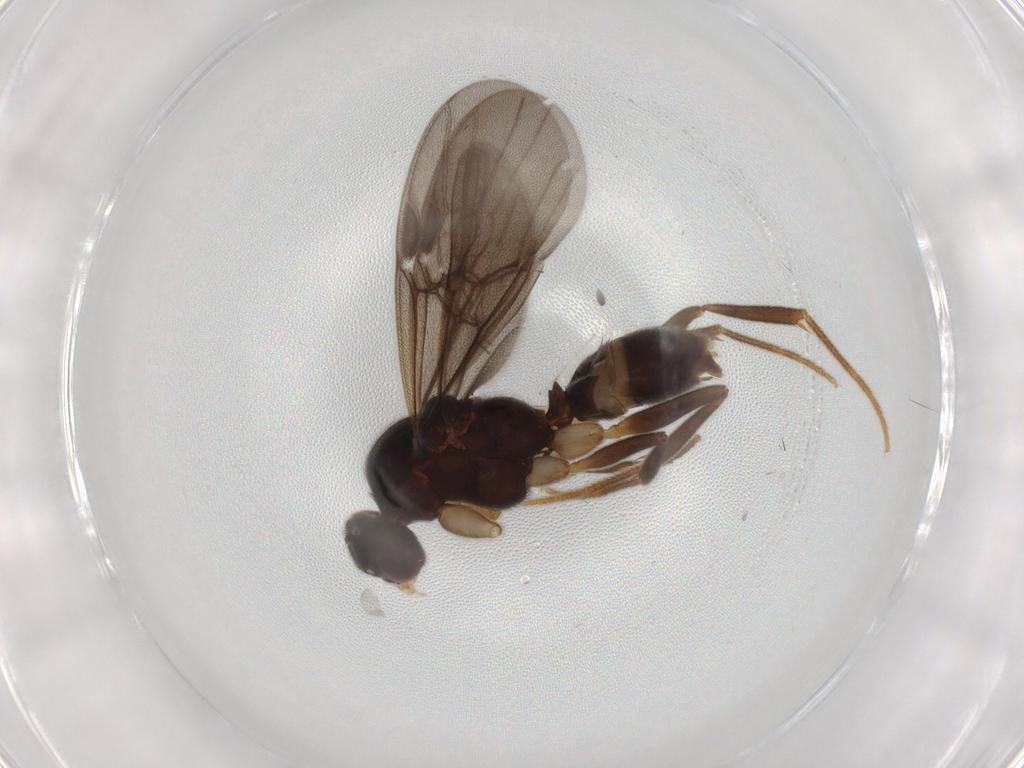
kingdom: Animalia
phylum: Arthropoda
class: Insecta
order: Hymenoptera
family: Formicidae
